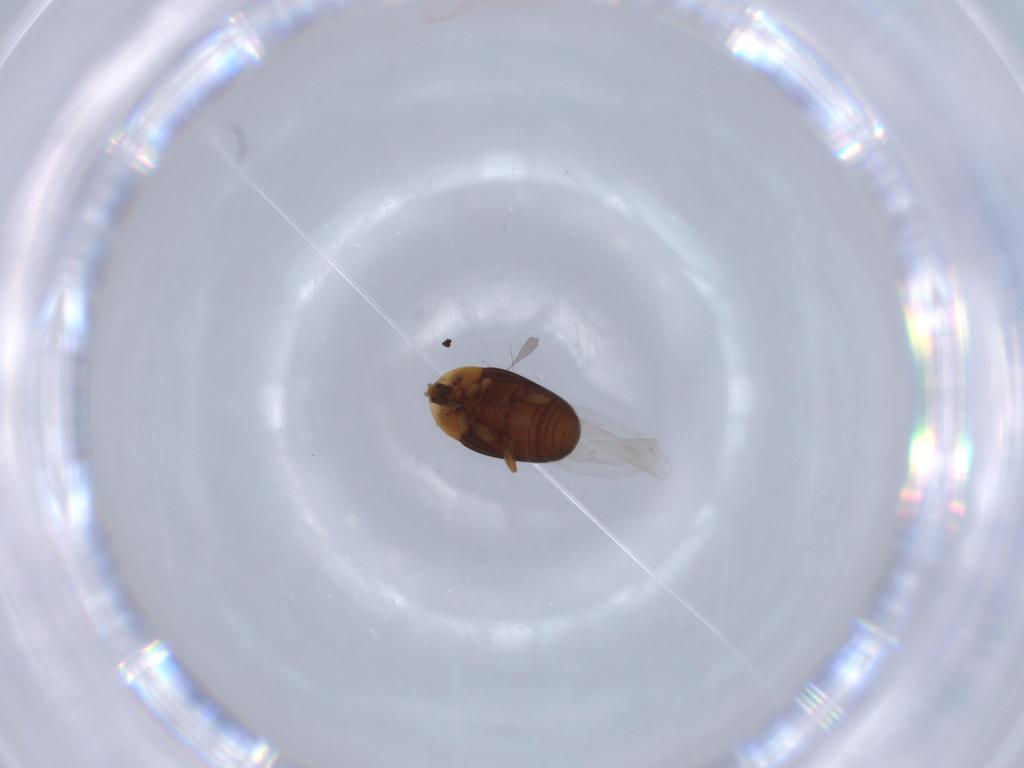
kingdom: Animalia
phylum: Arthropoda
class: Insecta
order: Coleoptera
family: Corylophidae
